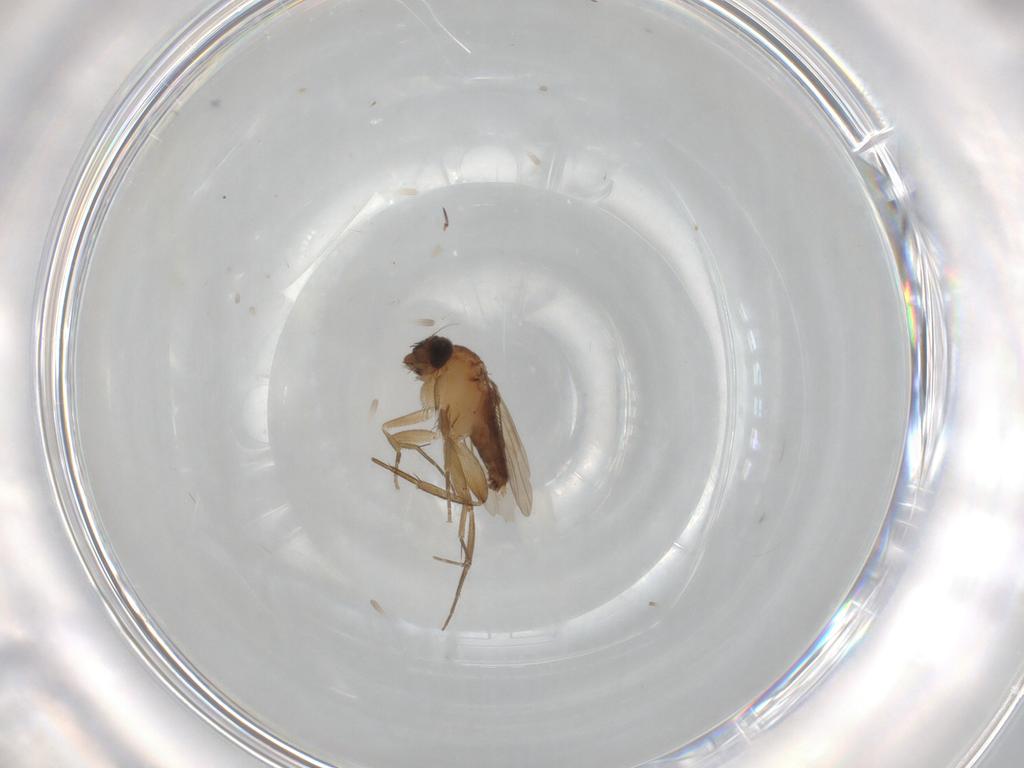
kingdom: Animalia
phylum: Arthropoda
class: Insecta
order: Diptera
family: Phoridae
